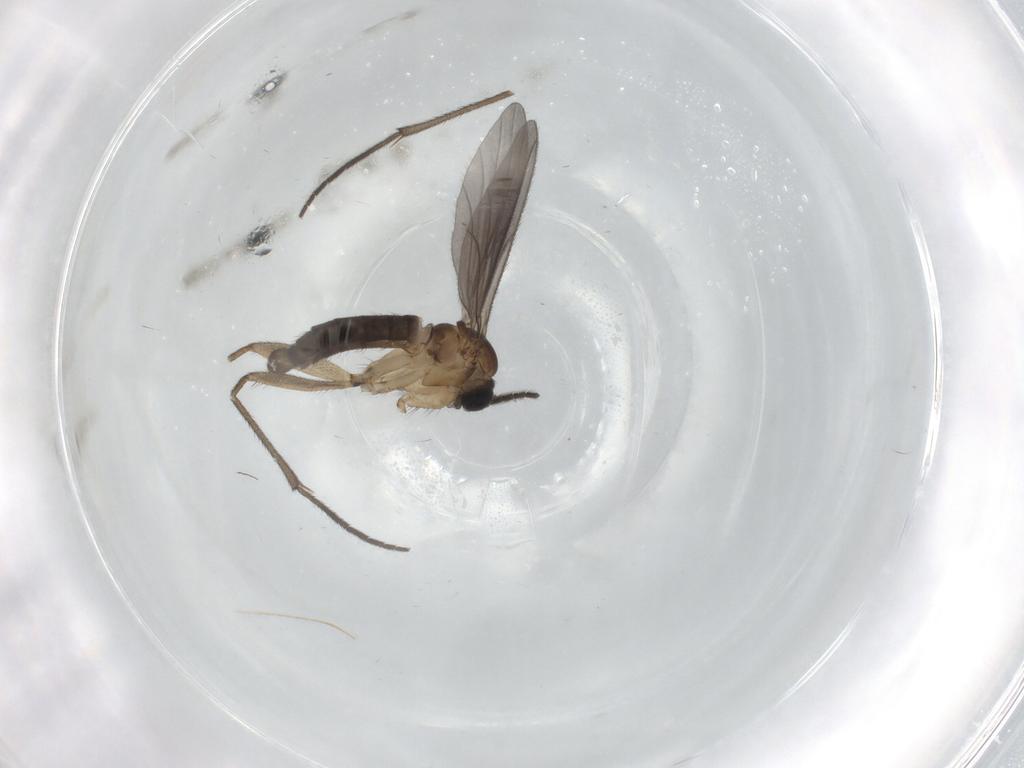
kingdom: Animalia
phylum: Arthropoda
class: Insecta
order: Diptera
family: Sciaridae
